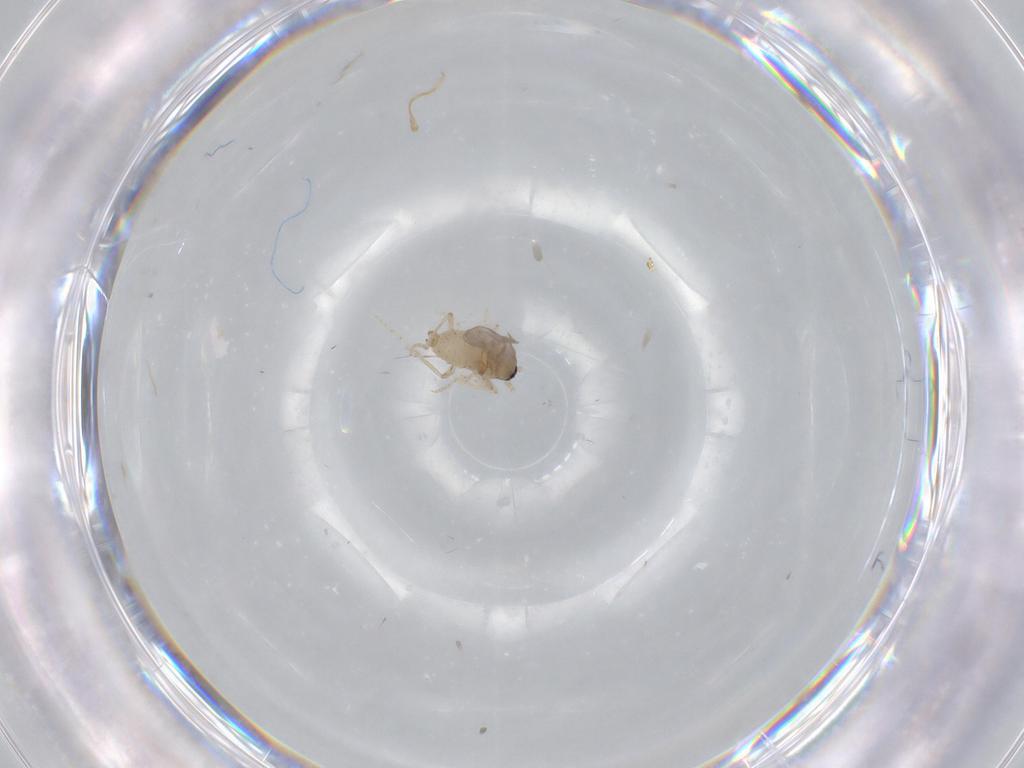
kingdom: Animalia
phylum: Arthropoda
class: Insecta
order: Diptera
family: Cecidomyiidae
